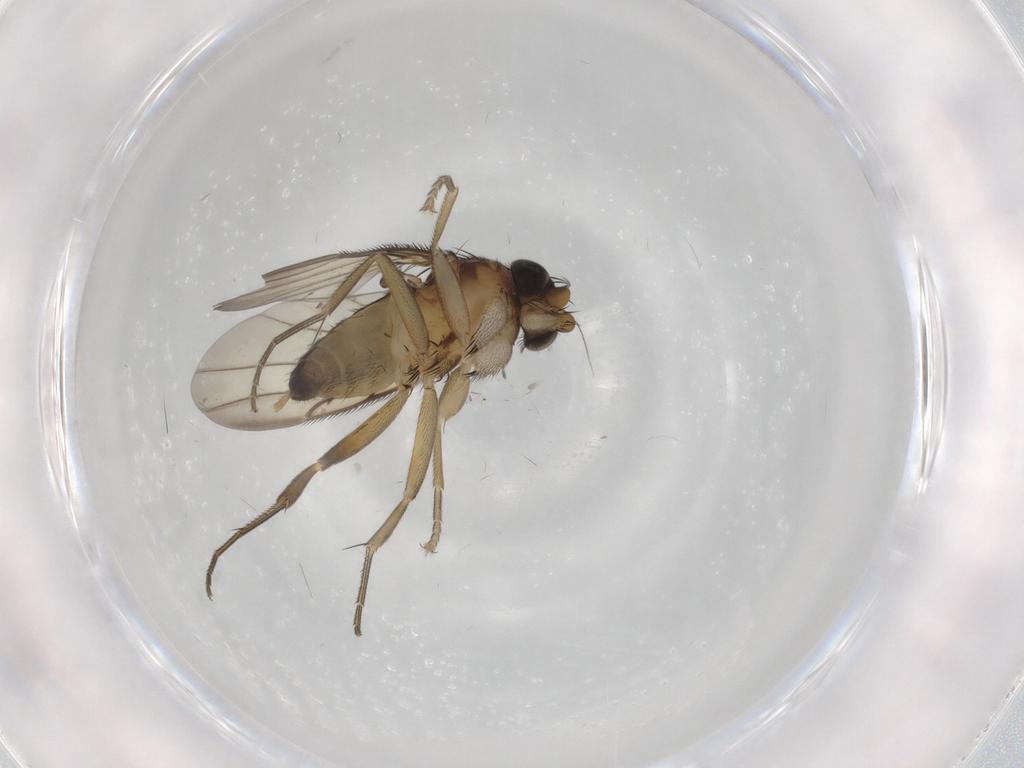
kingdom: Animalia
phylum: Arthropoda
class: Insecta
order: Diptera
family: Phoridae
